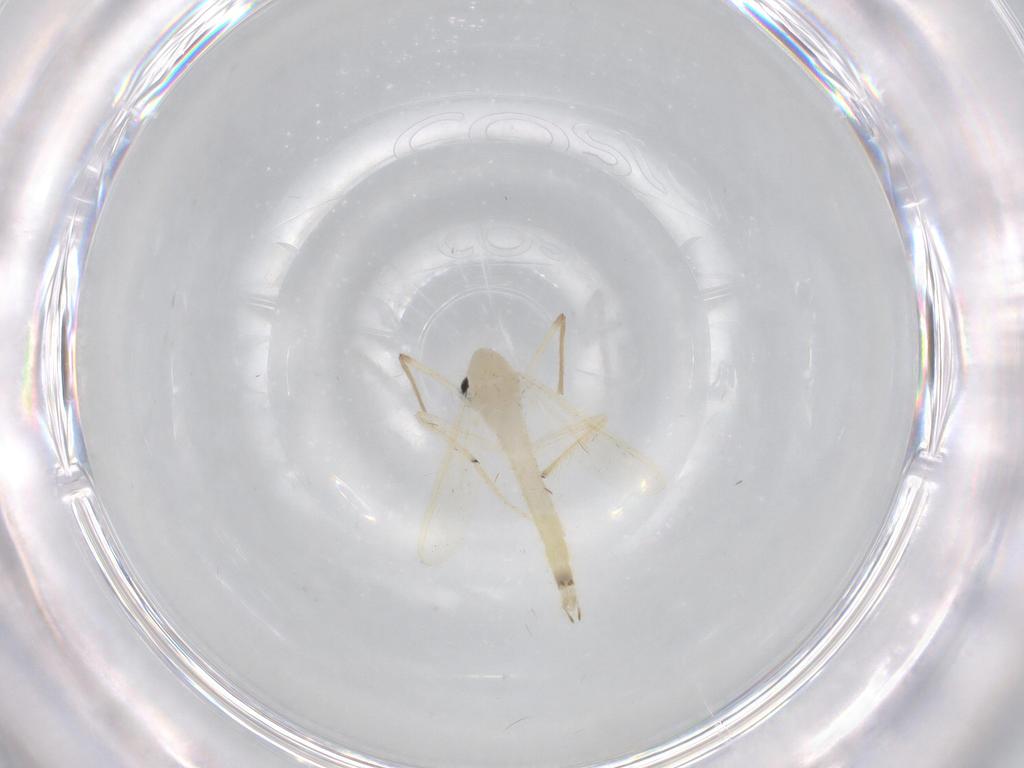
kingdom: Animalia
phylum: Arthropoda
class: Insecta
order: Diptera
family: Chironomidae
